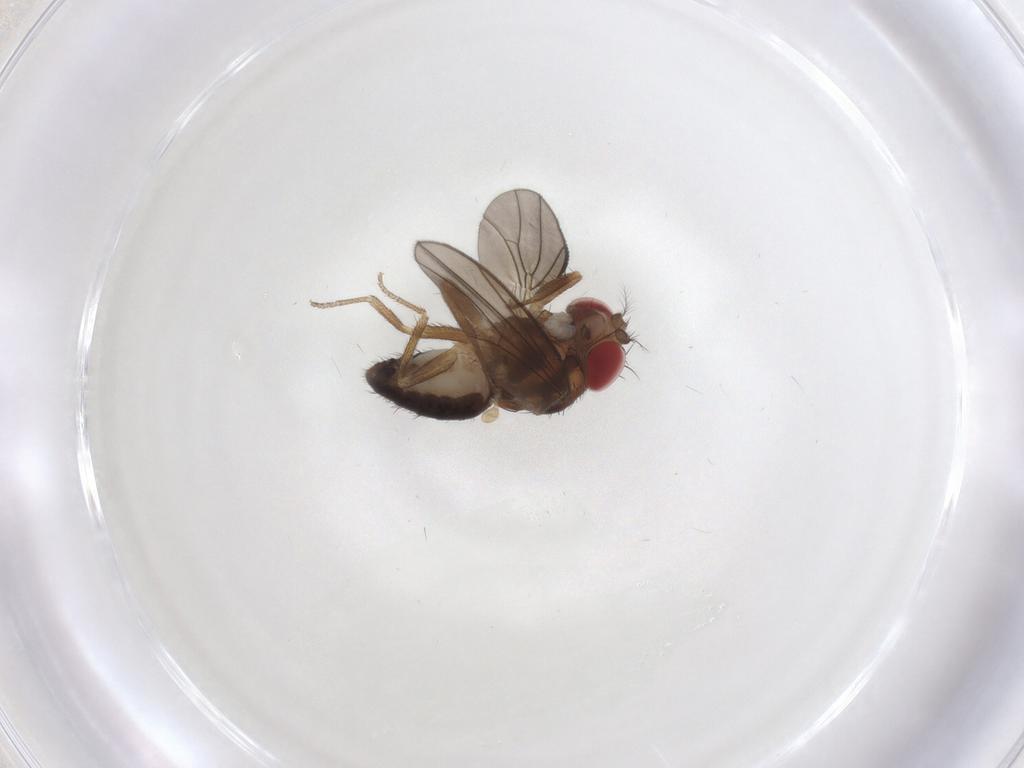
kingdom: Animalia
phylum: Arthropoda
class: Insecta
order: Diptera
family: Drosophilidae
